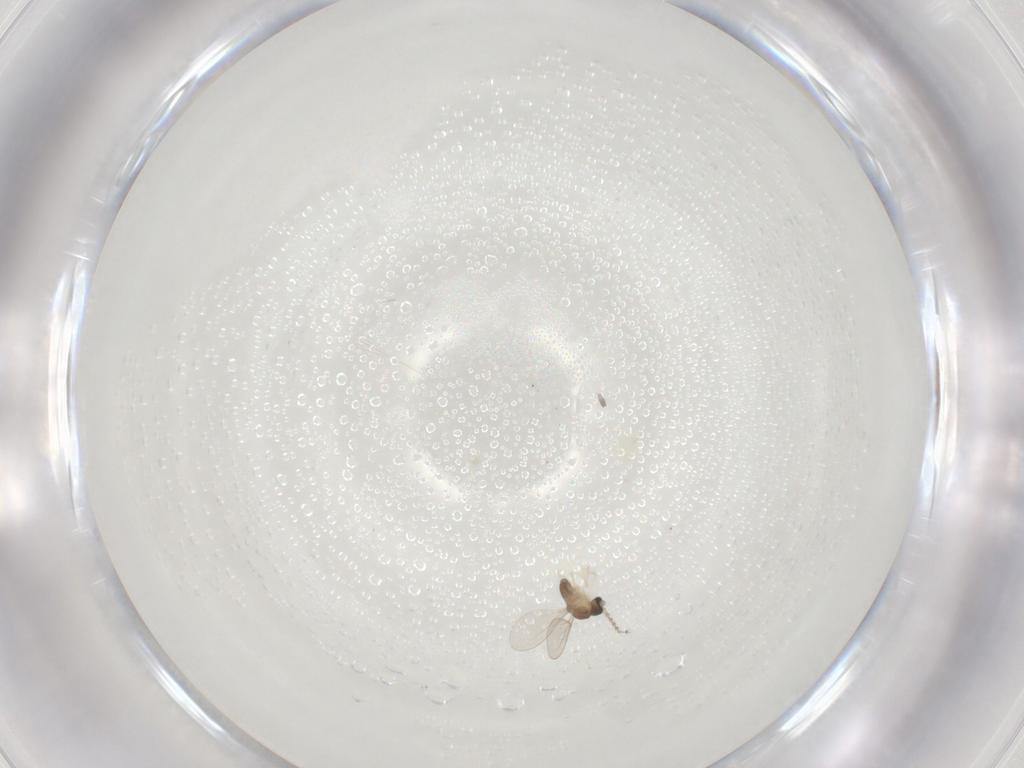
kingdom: Animalia
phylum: Arthropoda
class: Insecta
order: Diptera
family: Cecidomyiidae
